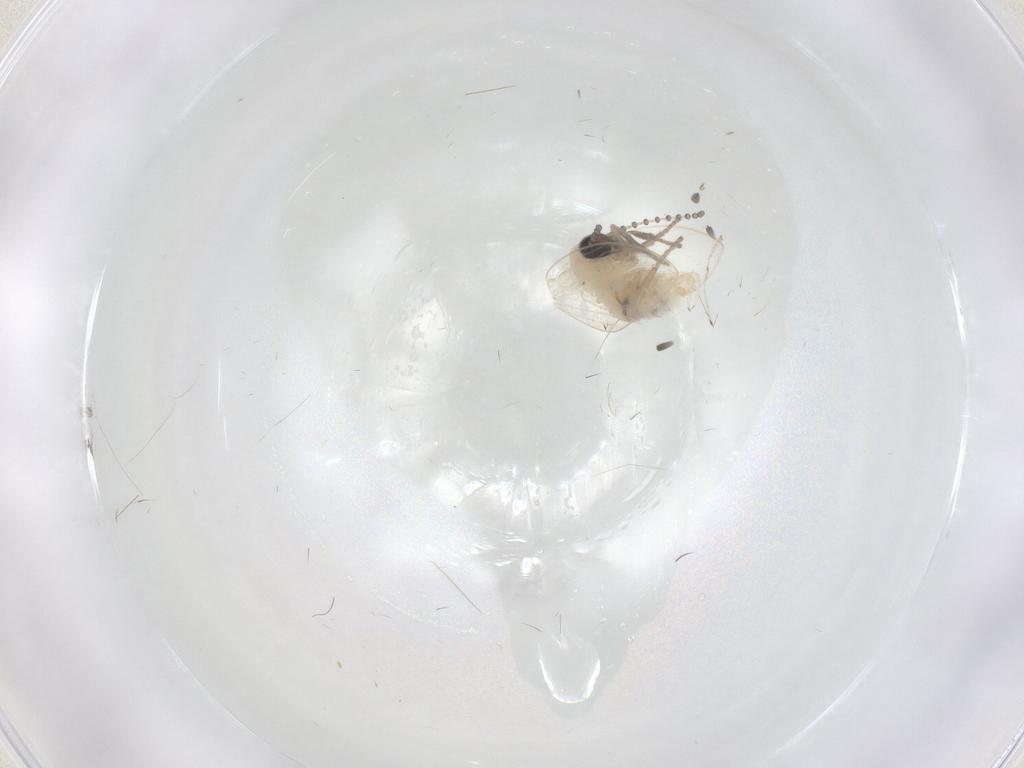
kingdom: Animalia
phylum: Arthropoda
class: Insecta
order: Diptera
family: Psychodidae
